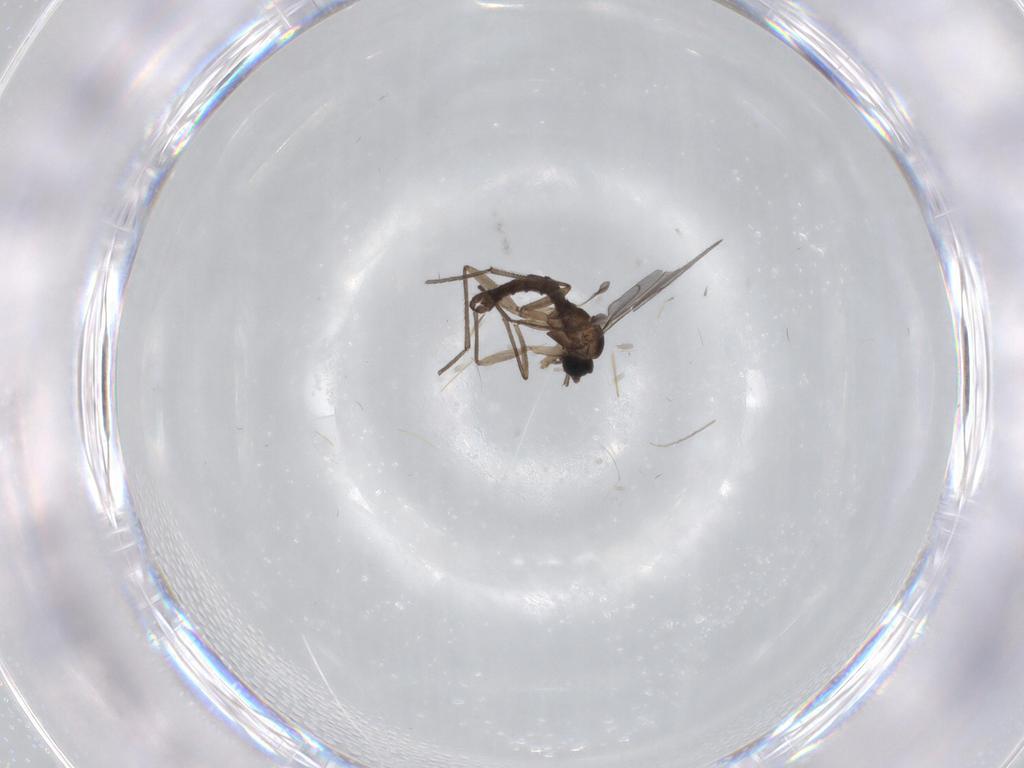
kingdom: Animalia
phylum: Arthropoda
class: Insecta
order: Diptera
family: Sciaridae
